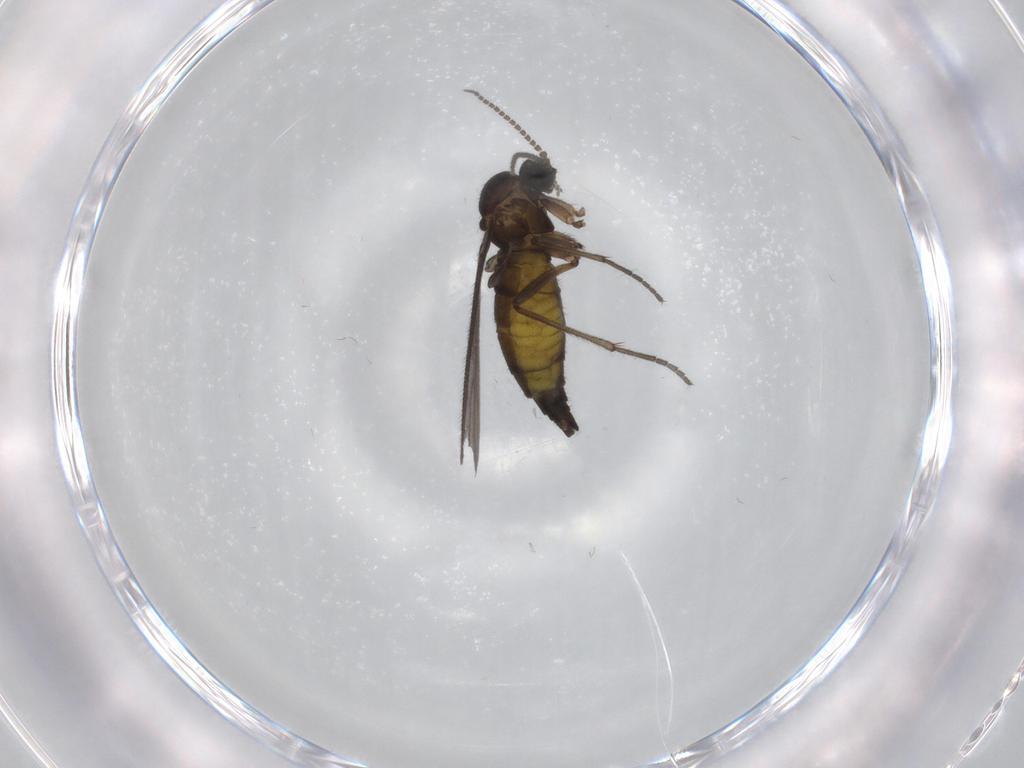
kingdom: Animalia
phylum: Arthropoda
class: Insecta
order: Diptera
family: Sciaridae
